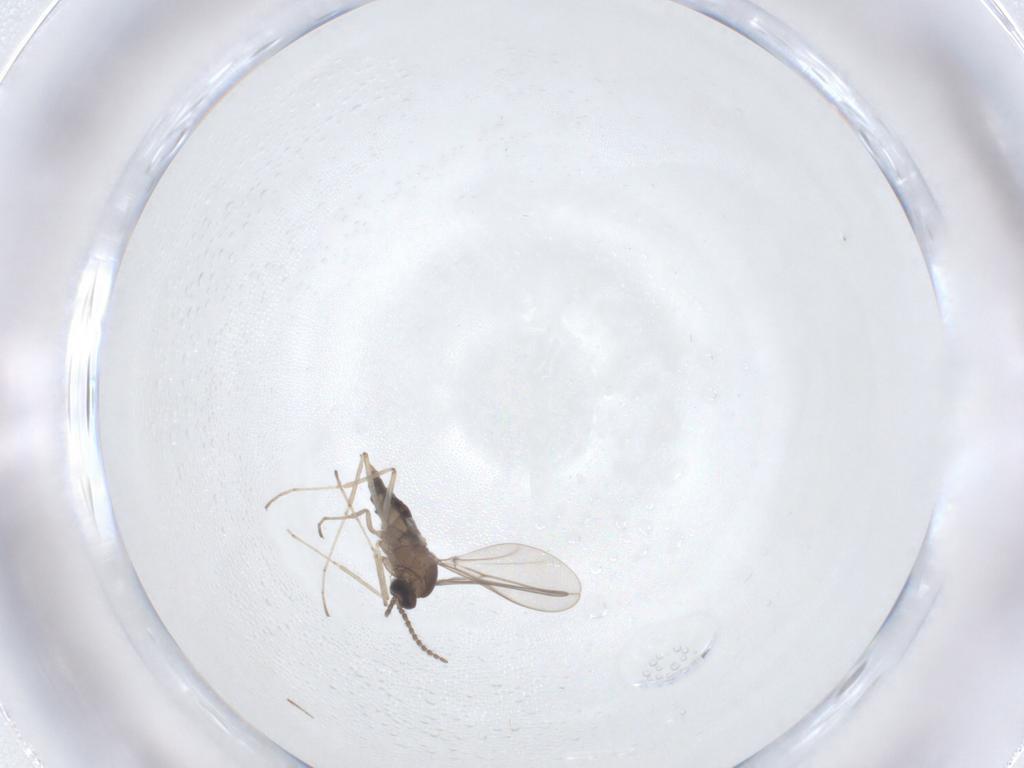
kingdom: Animalia
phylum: Arthropoda
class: Insecta
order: Diptera
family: Cecidomyiidae
